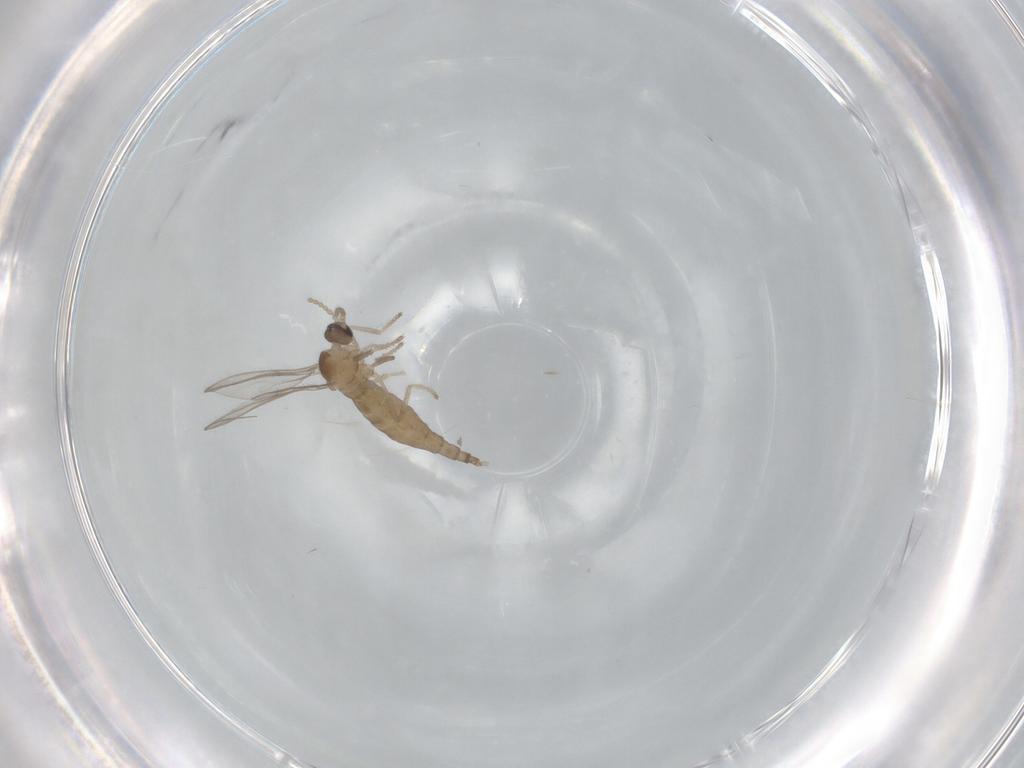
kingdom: Animalia
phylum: Arthropoda
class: Insecta
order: Diptera
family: Cecidomyiidae
